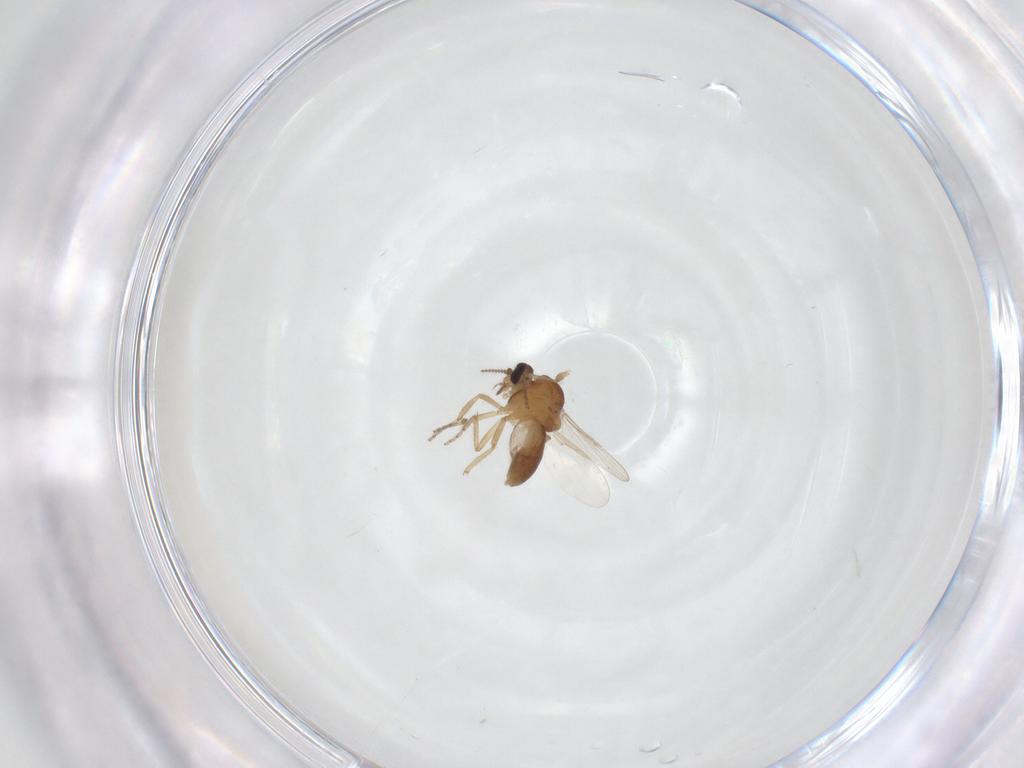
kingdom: Animalia
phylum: Arthropoda
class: Insecta
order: Diptera
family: Ceratopogonidae
